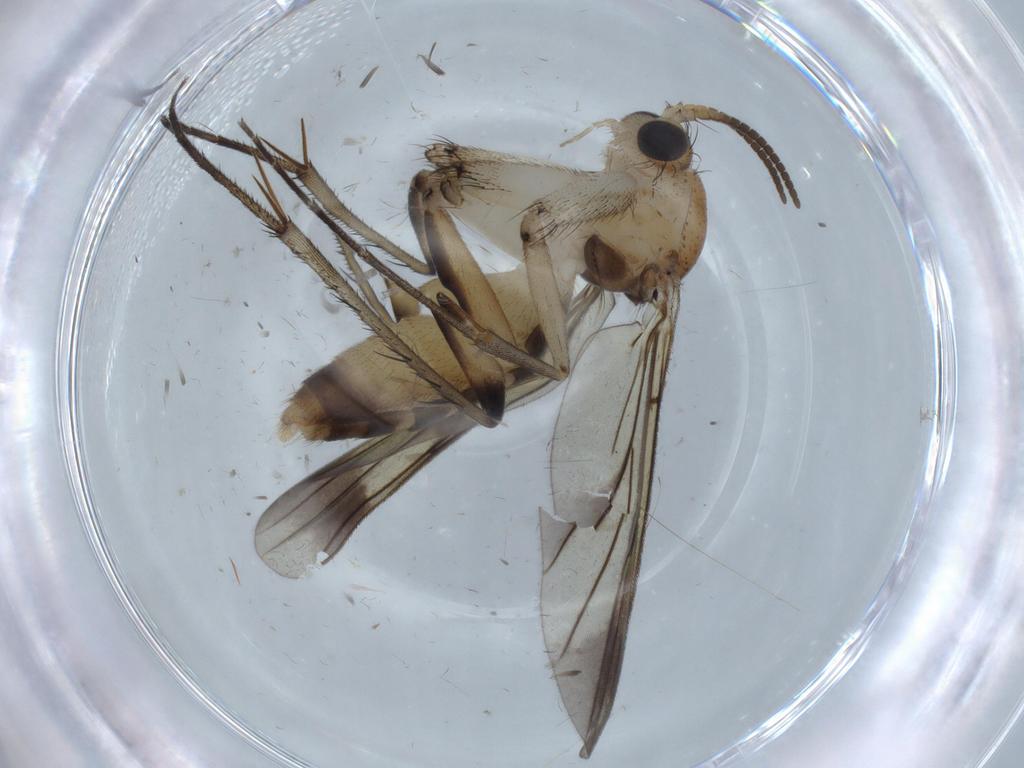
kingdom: Animalia
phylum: Arthropoda
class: Insecta
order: Diptera
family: Mycetophilidae
